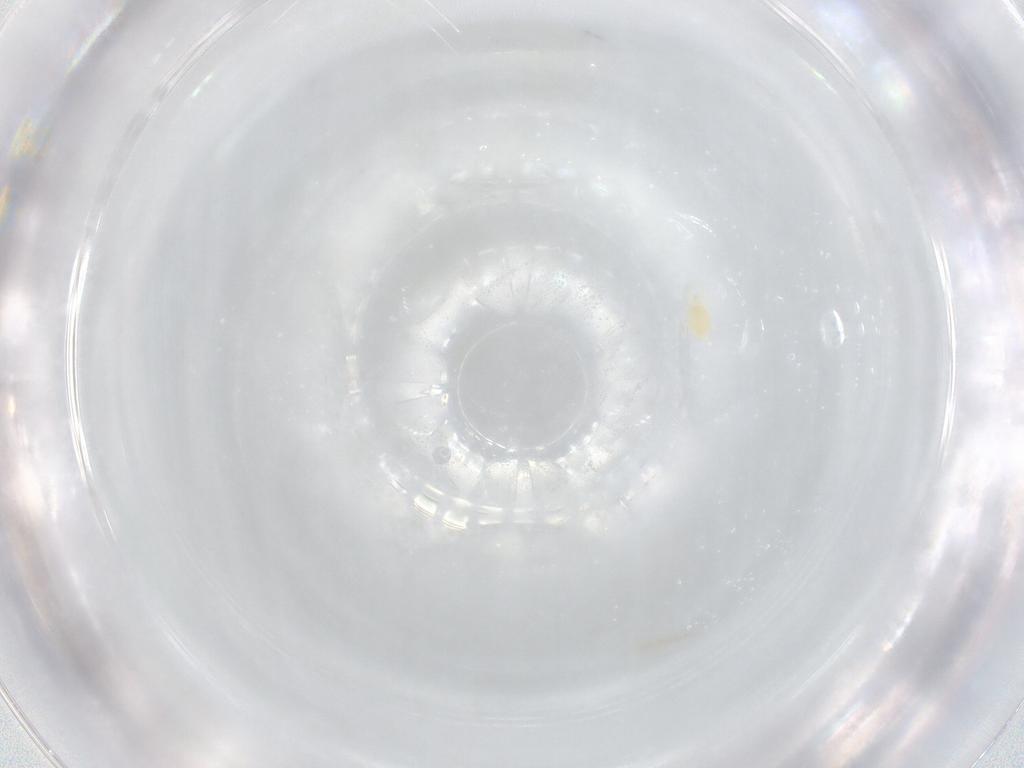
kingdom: Animalia
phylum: Arthropoda
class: Arachnida
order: Trombidiformes
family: Tetranychidae
